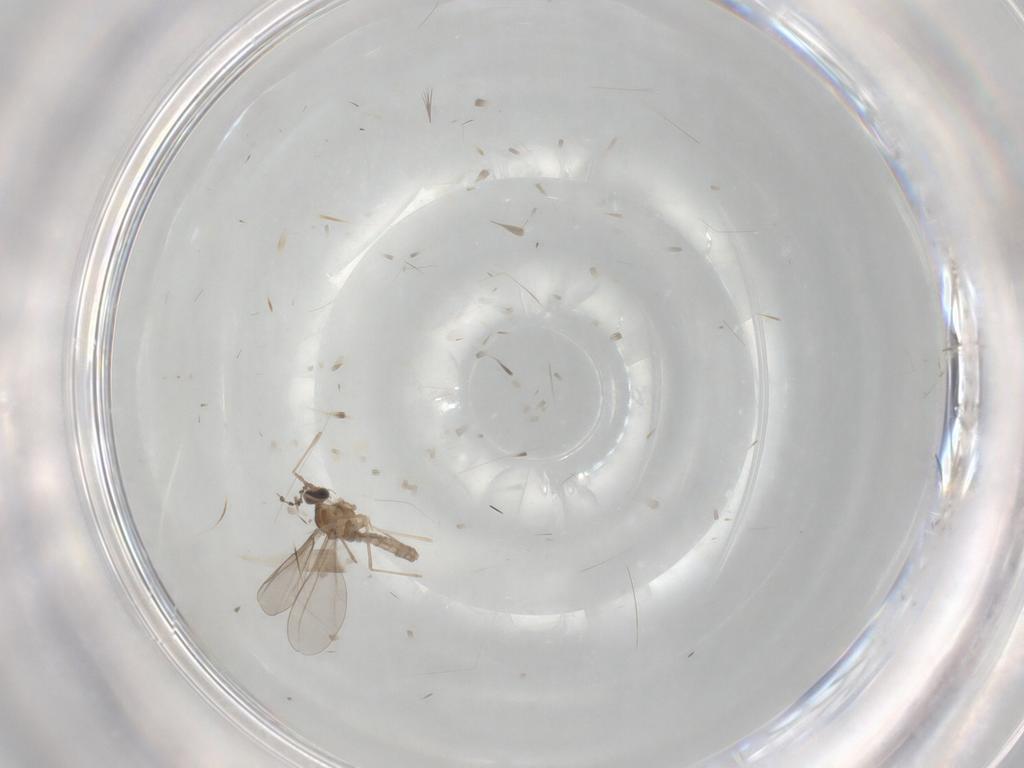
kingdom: Animalia
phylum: Arthropoda
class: Insecta
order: Diptera
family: Cecidomyiidae
